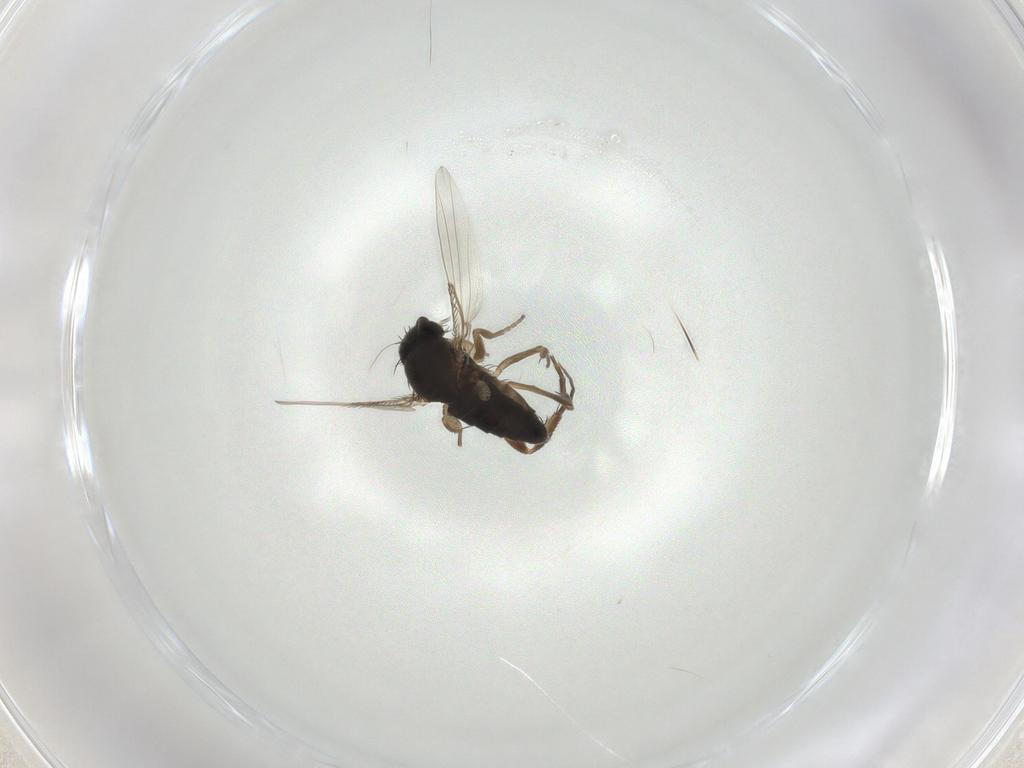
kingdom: Animalia
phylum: Arthropoda
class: Insecta
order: Diptera
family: Phoridae
